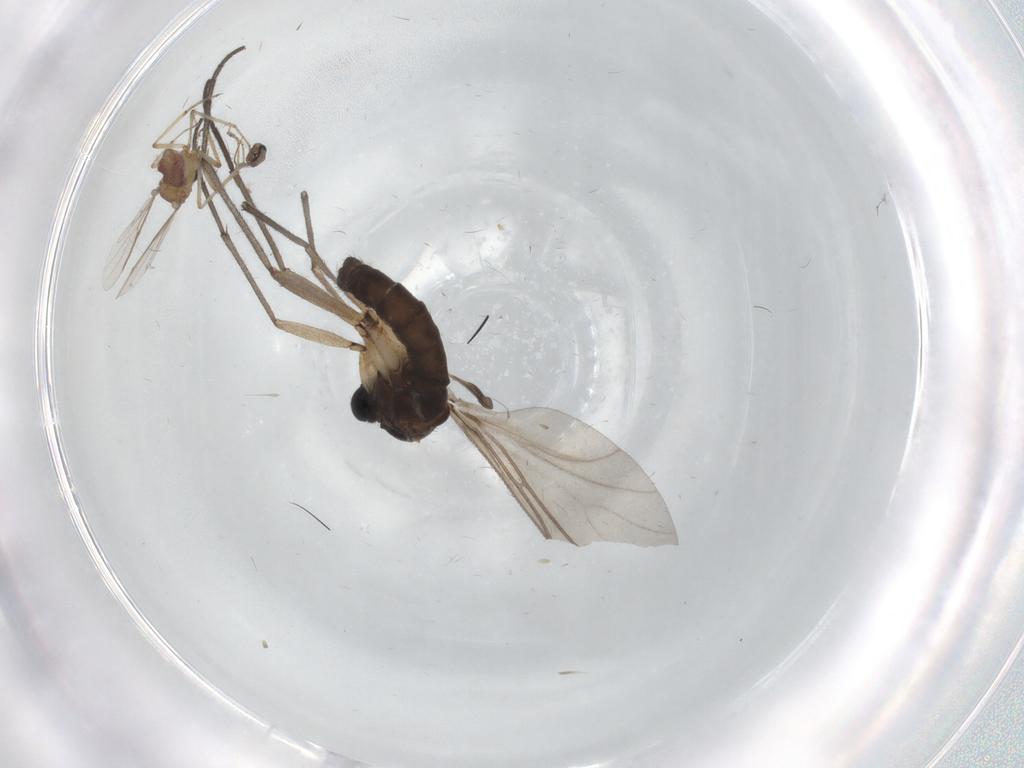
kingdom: Animalia
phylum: Arthropoda
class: Insecta
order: Diptera
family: Cecidomyiidae
